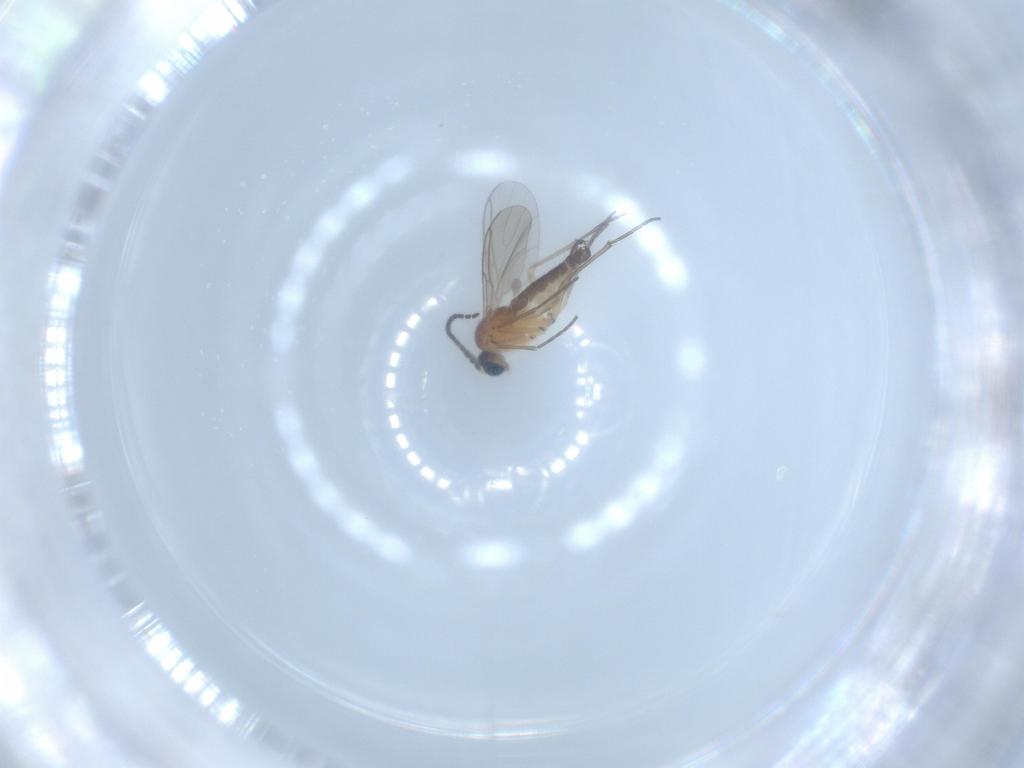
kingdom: Animalia
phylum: Arthropoda
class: Insecta
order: Diptera
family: Sciaridae
